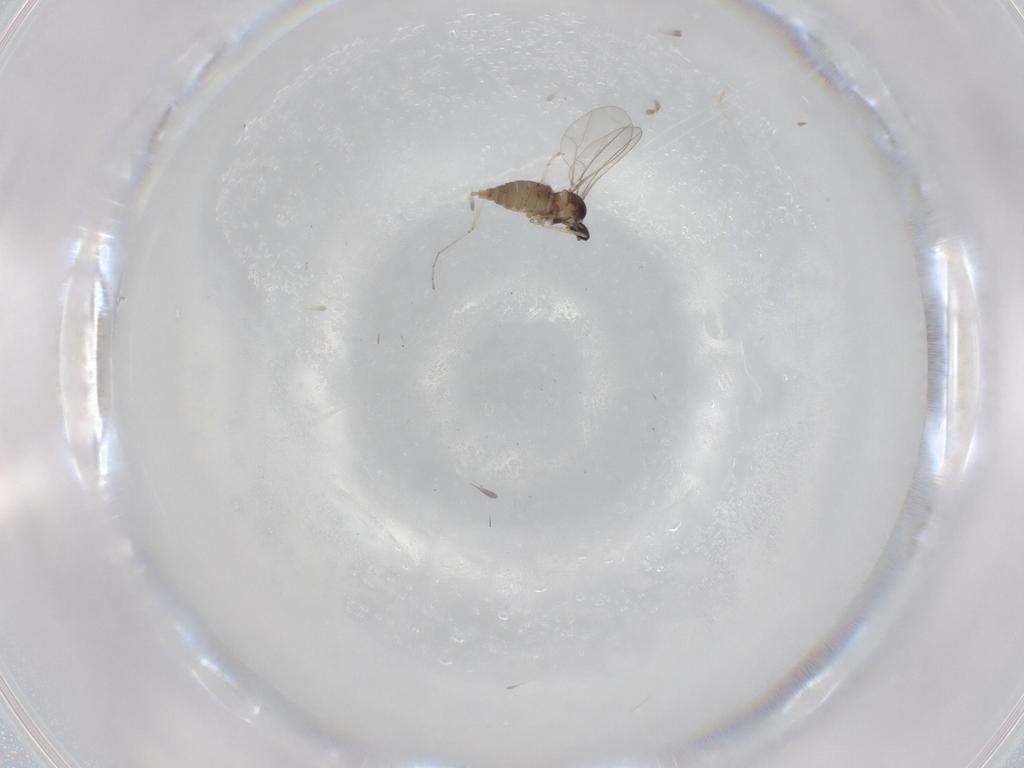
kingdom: Animalia
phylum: Arthropoda
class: Insecta
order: Diptera
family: Cecidomyiidae
